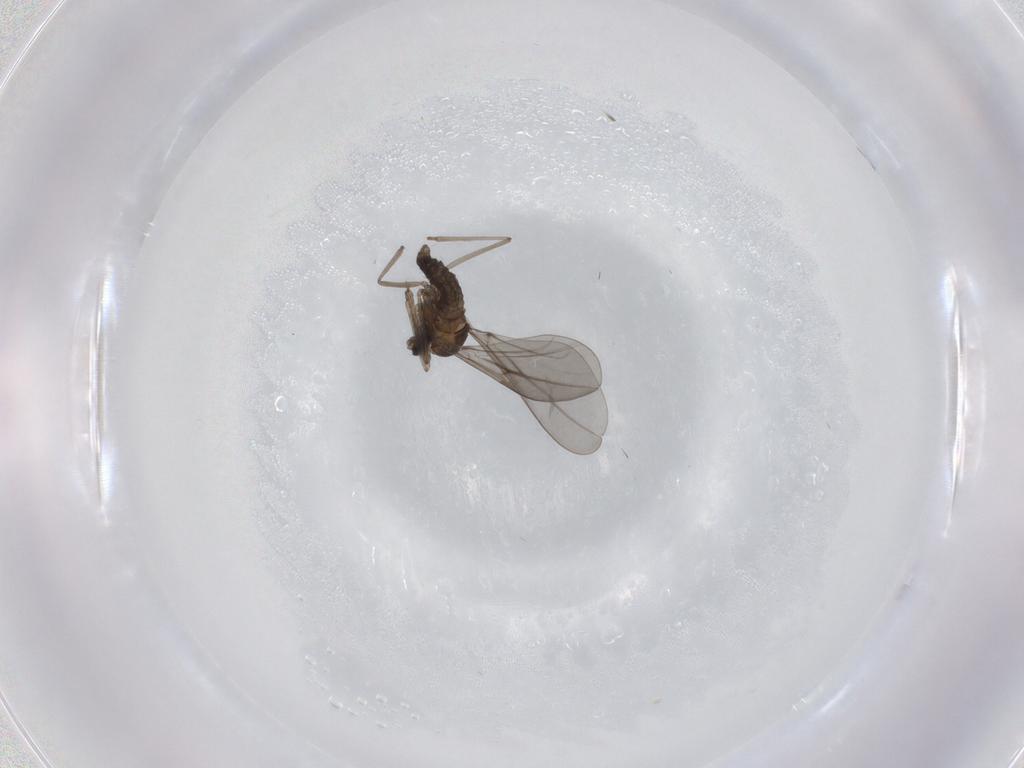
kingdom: Animalia
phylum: Arthropoda
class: Insecta
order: Diptera
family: Cecidomyiidae
